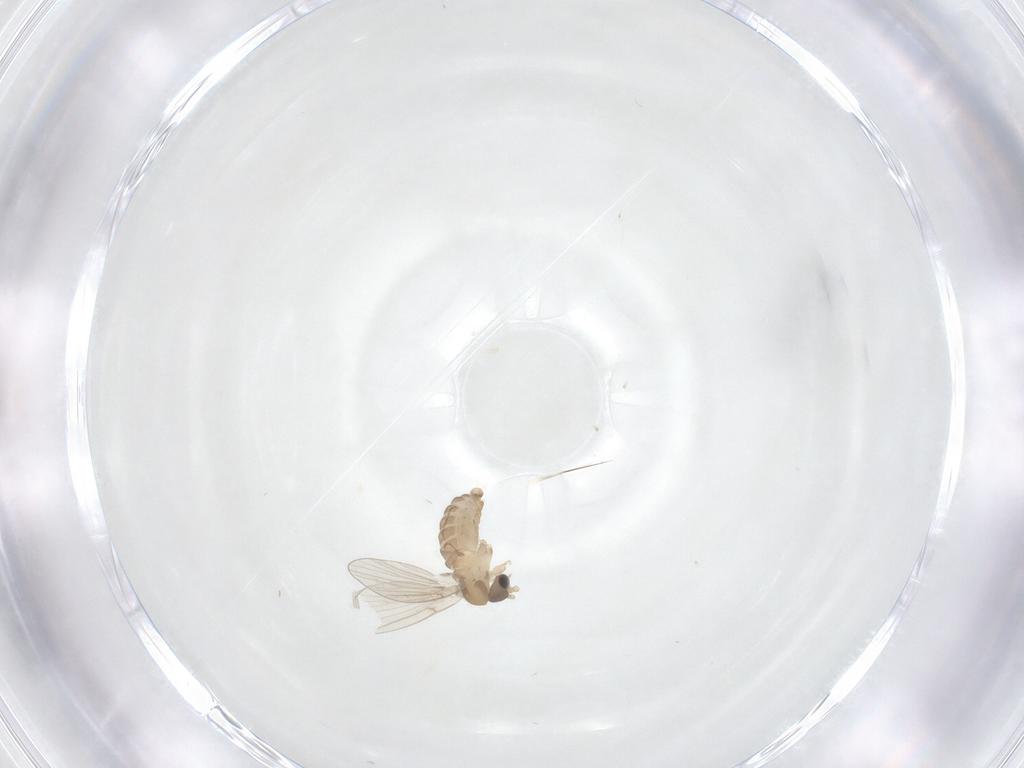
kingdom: Animalia
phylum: Arthropoda
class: Insecta
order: Diptera
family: Psychodidae
